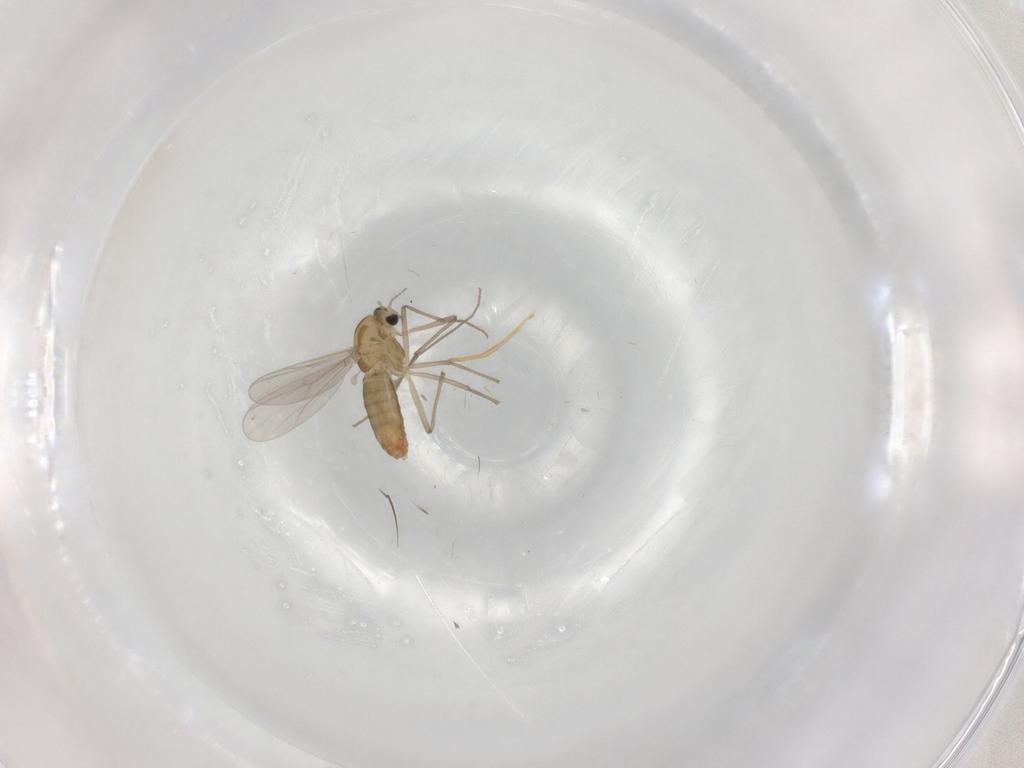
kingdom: Animalia
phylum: Arthropoda
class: Insecta
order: Diptera
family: Chironomidae
